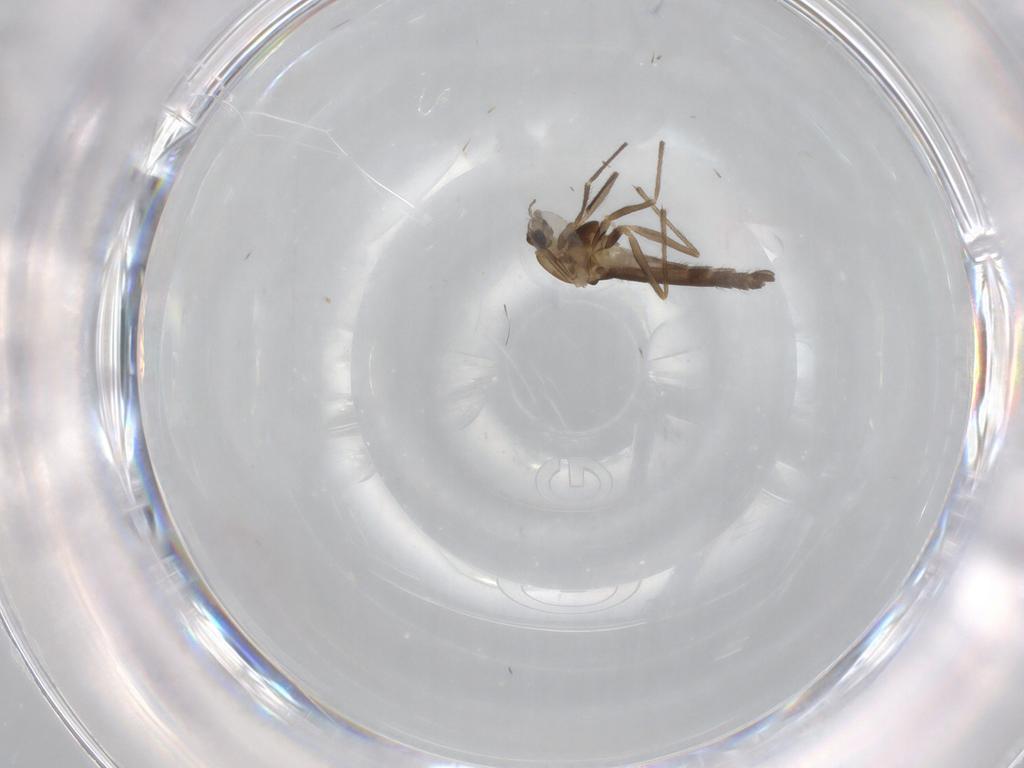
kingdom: Animalia
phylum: Arthropoda
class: Insecta
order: Diptera
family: Chironomidae
